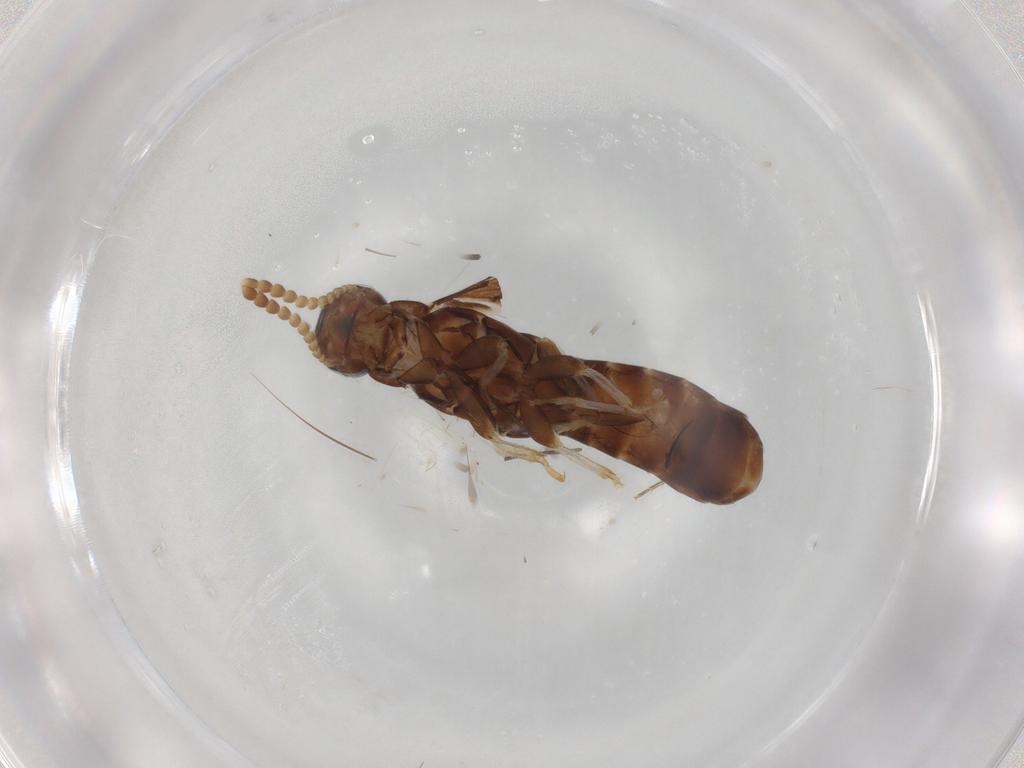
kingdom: Animalia
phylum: Arthropoda
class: Insecta
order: Blattodea
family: Kalotermitidae
